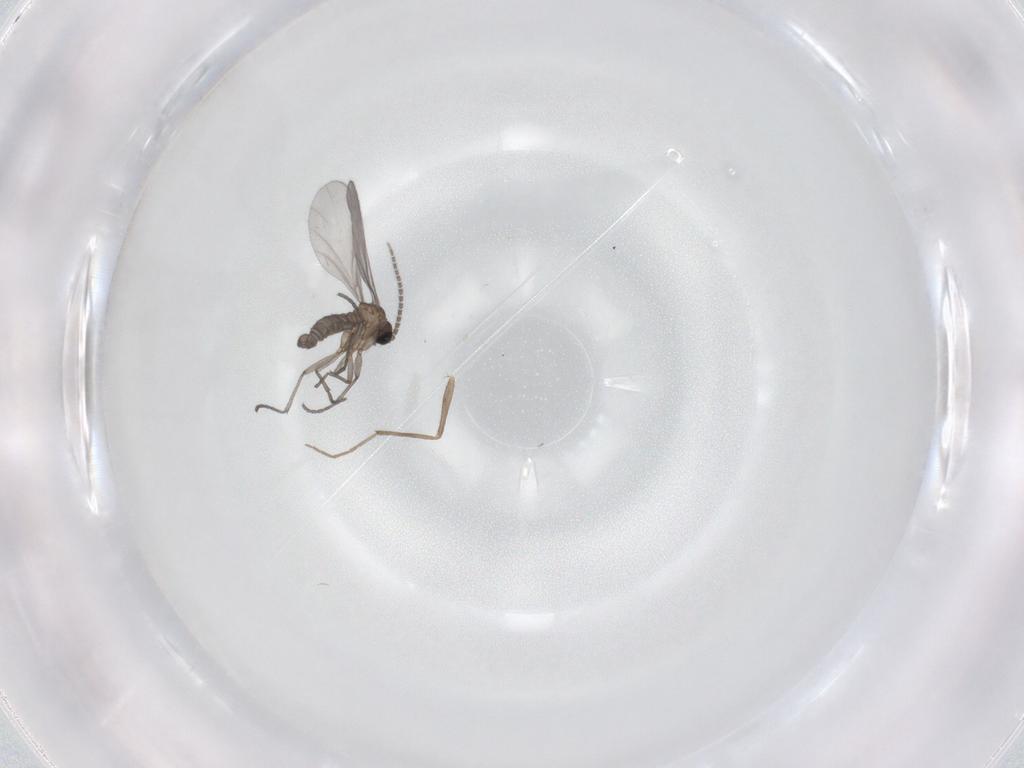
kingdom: Animalia
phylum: Arthropoda
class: Insecta
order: Diptera
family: Sciaridae
